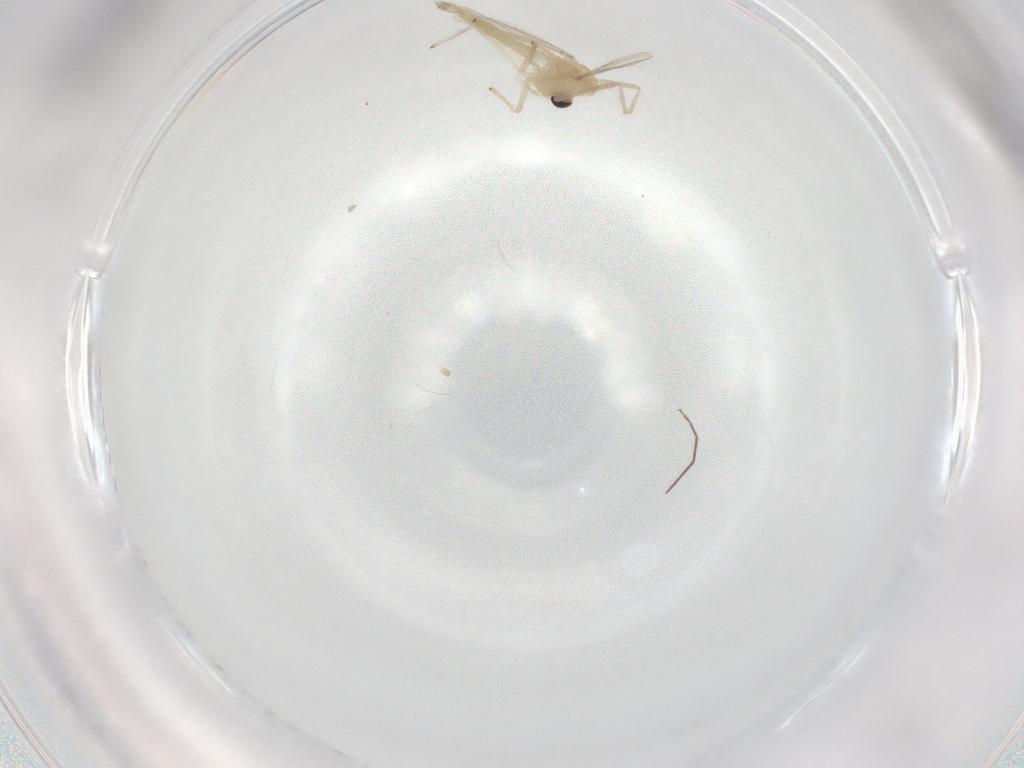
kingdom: Animalia
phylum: Arthropoda
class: Insecta
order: Diptera
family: Chironomidae
